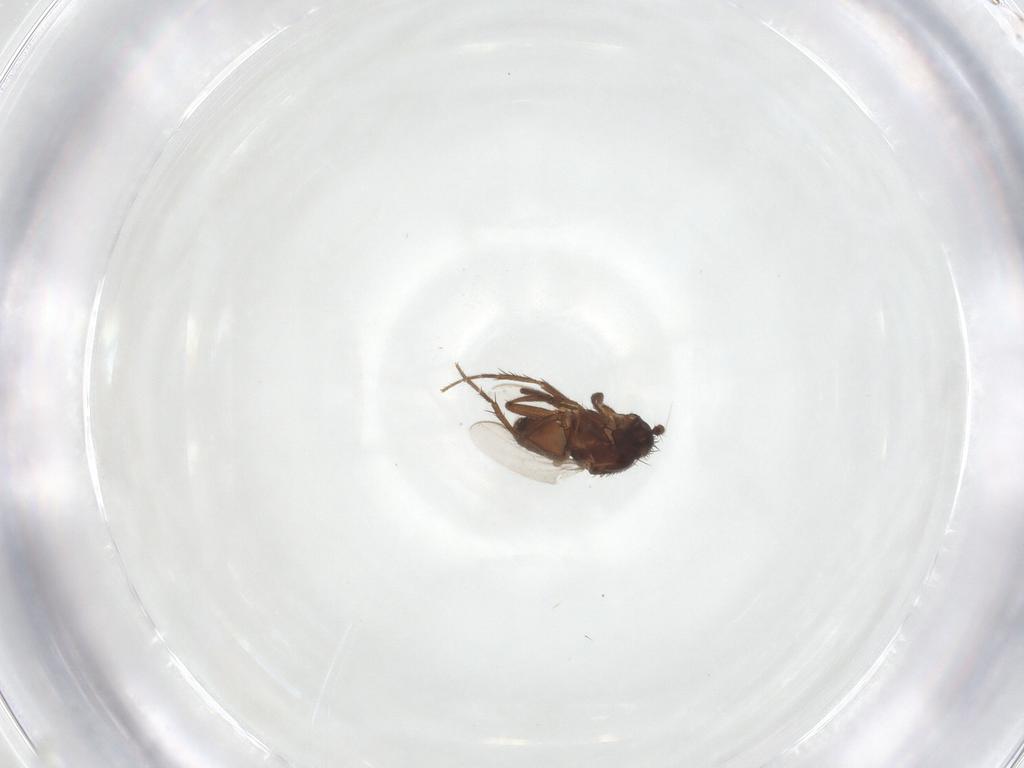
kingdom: Animalia
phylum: Arthropoda
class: Insecta
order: Diptera
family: Sphaeroceridae
